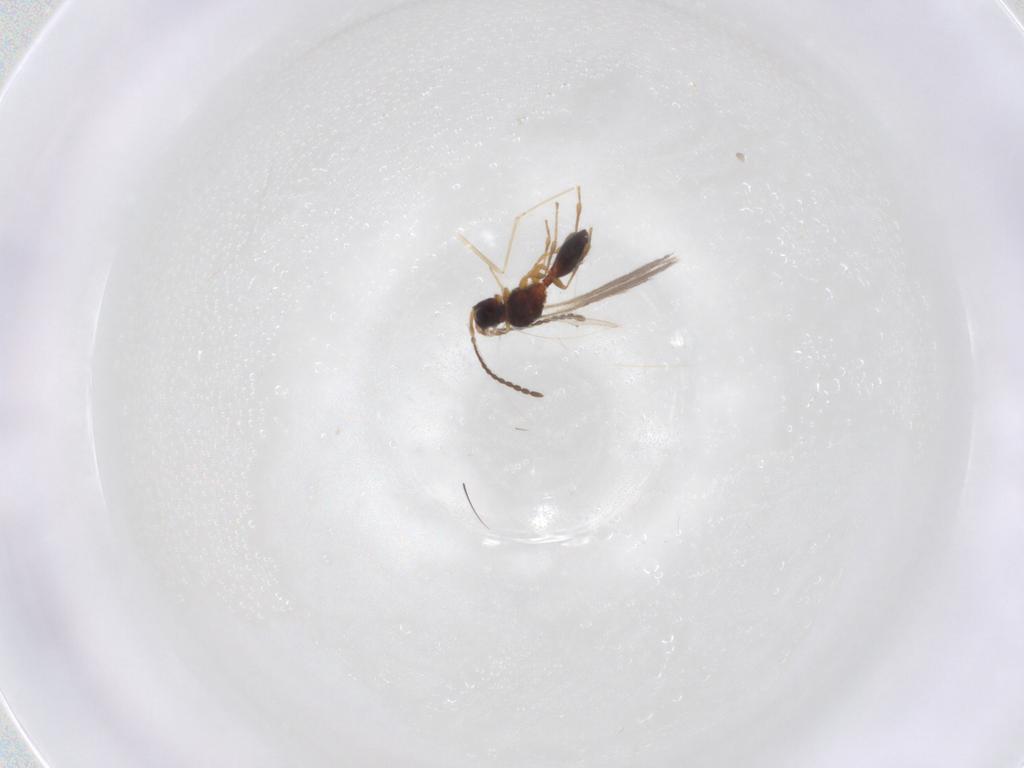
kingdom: Animalia
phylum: Arthropoda
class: Insecta
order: Hymenoptera
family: Diapriidae
